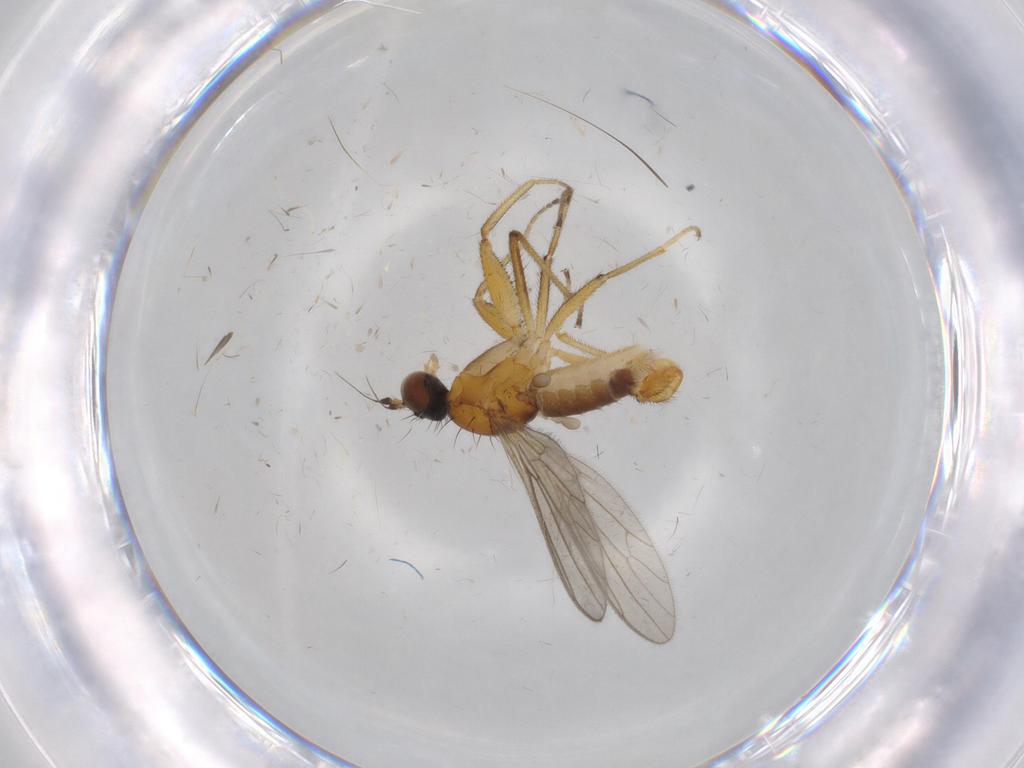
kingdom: Animalia
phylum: Arthropoda
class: Insecta
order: Diptera
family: Empididae
